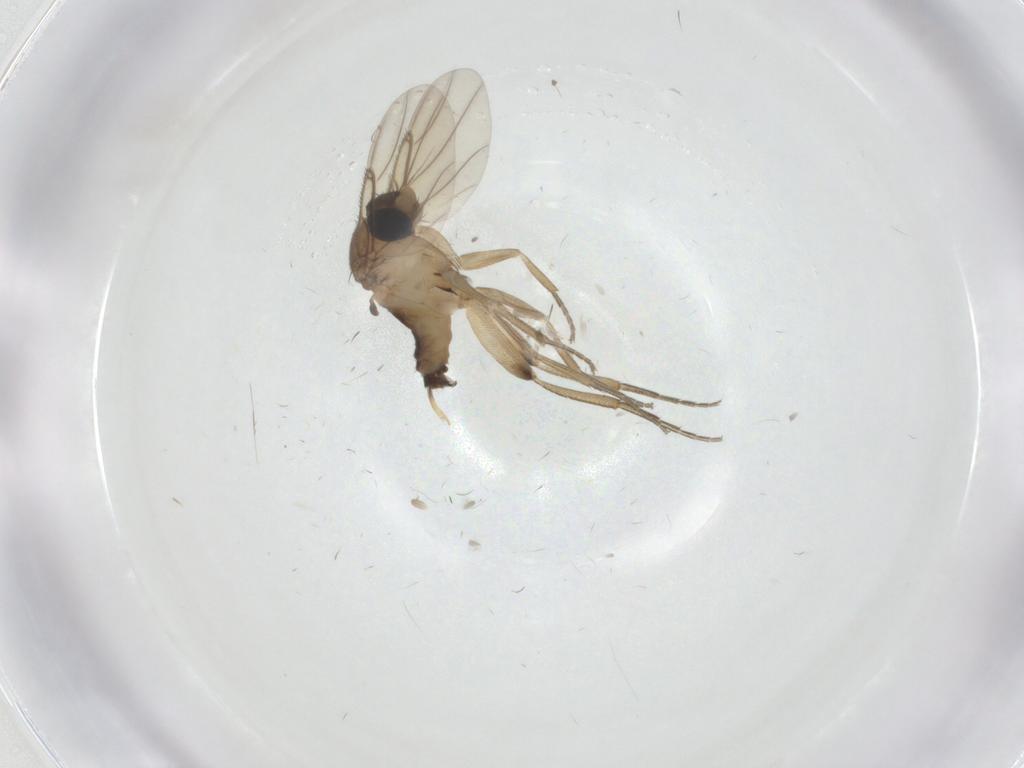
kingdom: Animalia
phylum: Arthropoda
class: Insecta
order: Diptera
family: Phoridae
